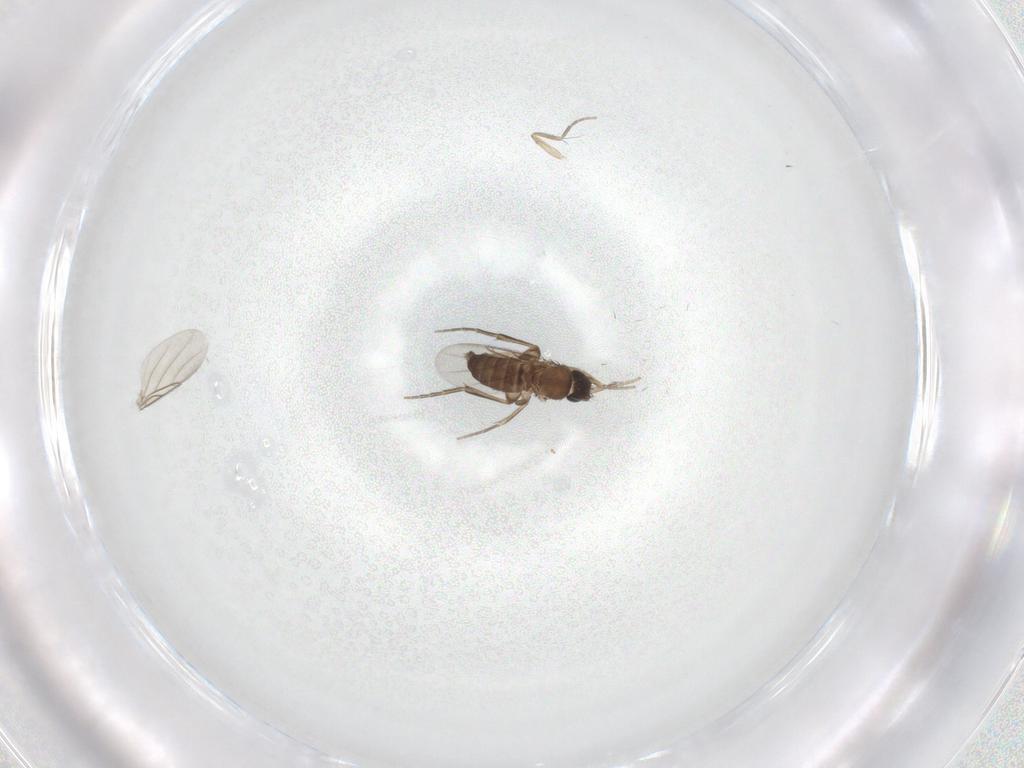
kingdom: Animalia
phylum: Arthropoda
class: Insecta
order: Diptera
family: Phoridae
